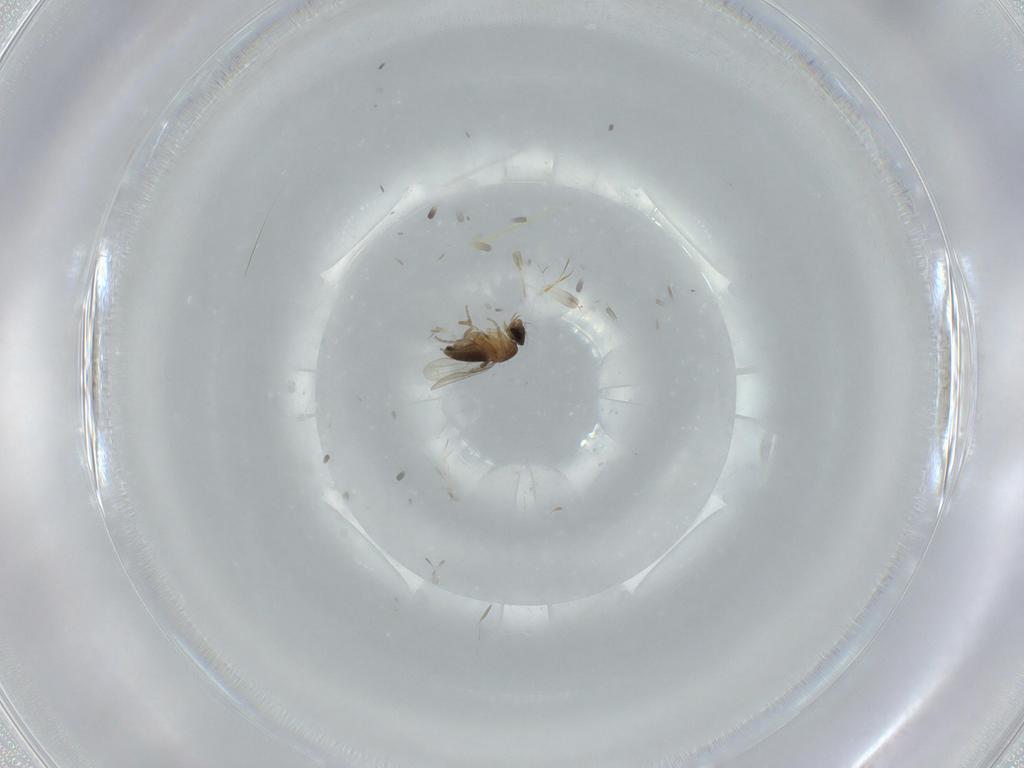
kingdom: Animalia
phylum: Arthropoda
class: Insecta
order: Diptera
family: Phoridae
